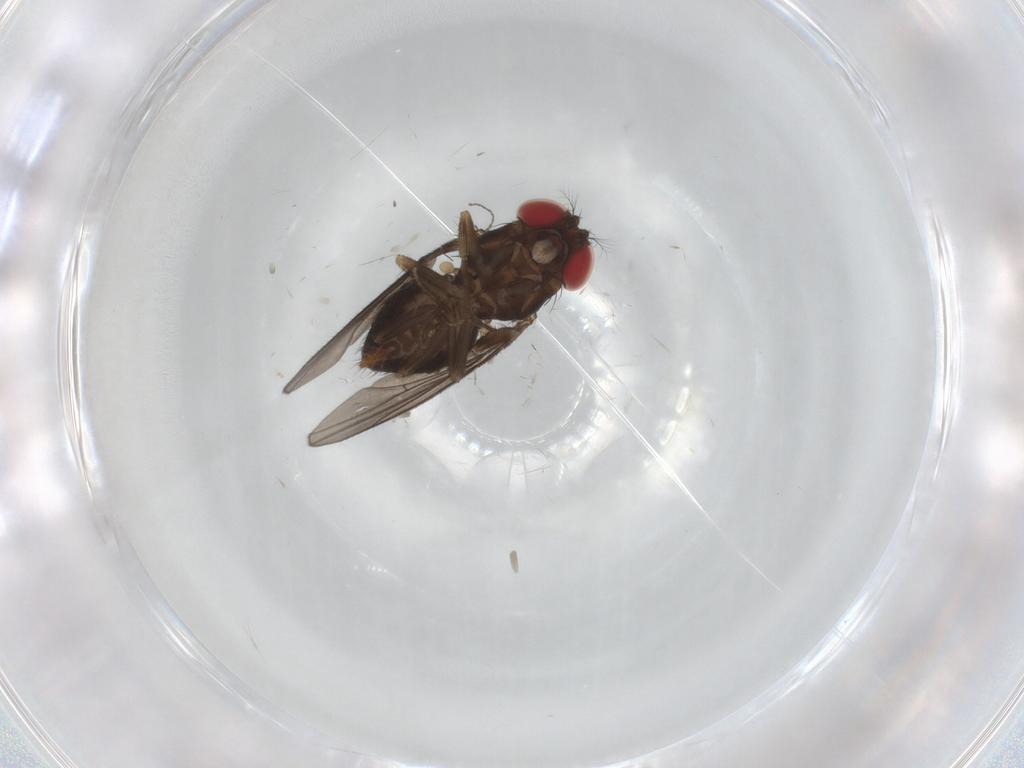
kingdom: Animalia
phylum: Arthropoda
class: Insecta
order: Diptera
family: Drosophilidae
